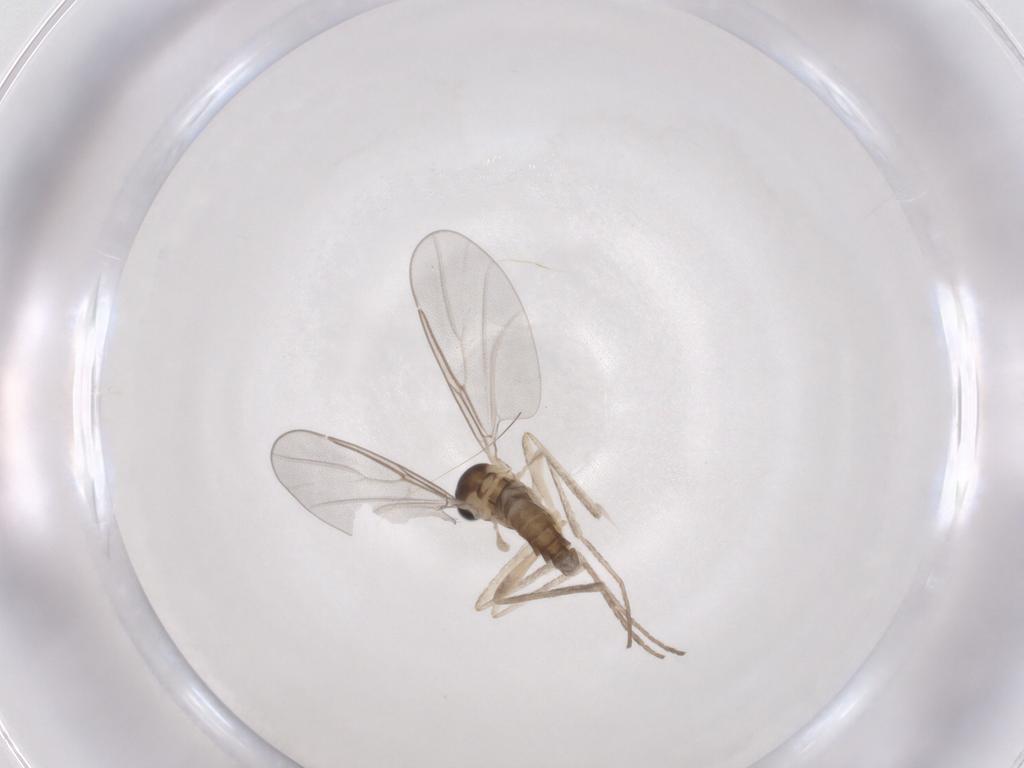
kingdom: Animalia
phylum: Arthropoda
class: Insecta
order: Diptera
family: Cecidomyiidae
